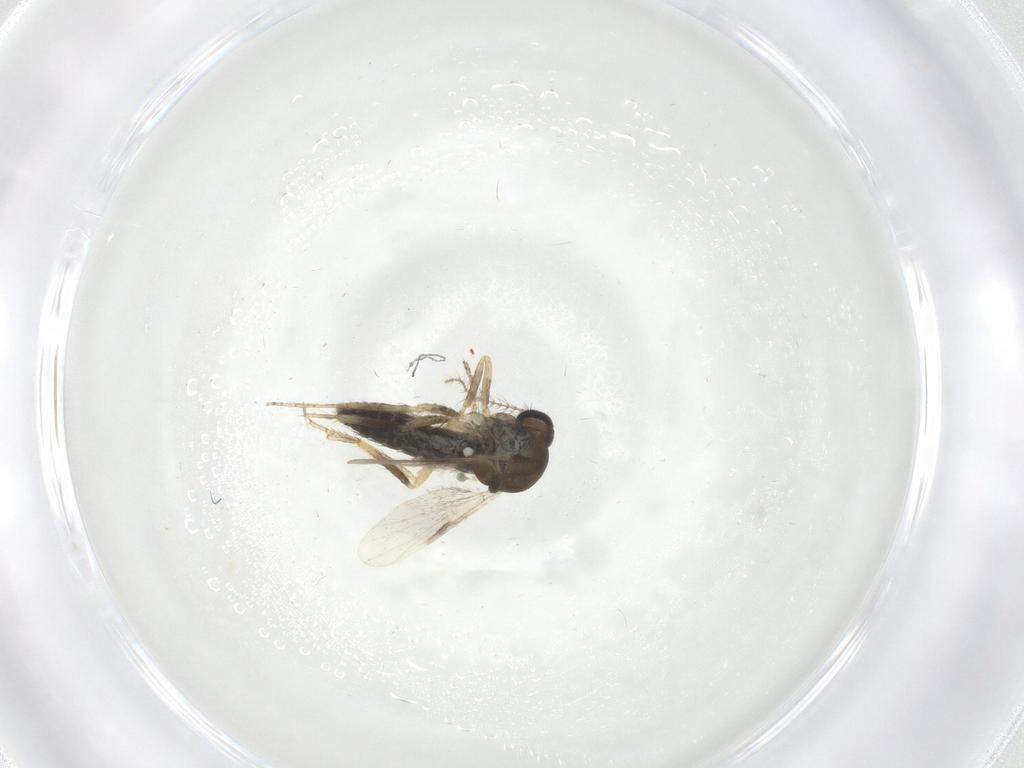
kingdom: Animalia
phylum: Arthropoda
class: Insecta
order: Diptera
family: Ceratopogonidae
